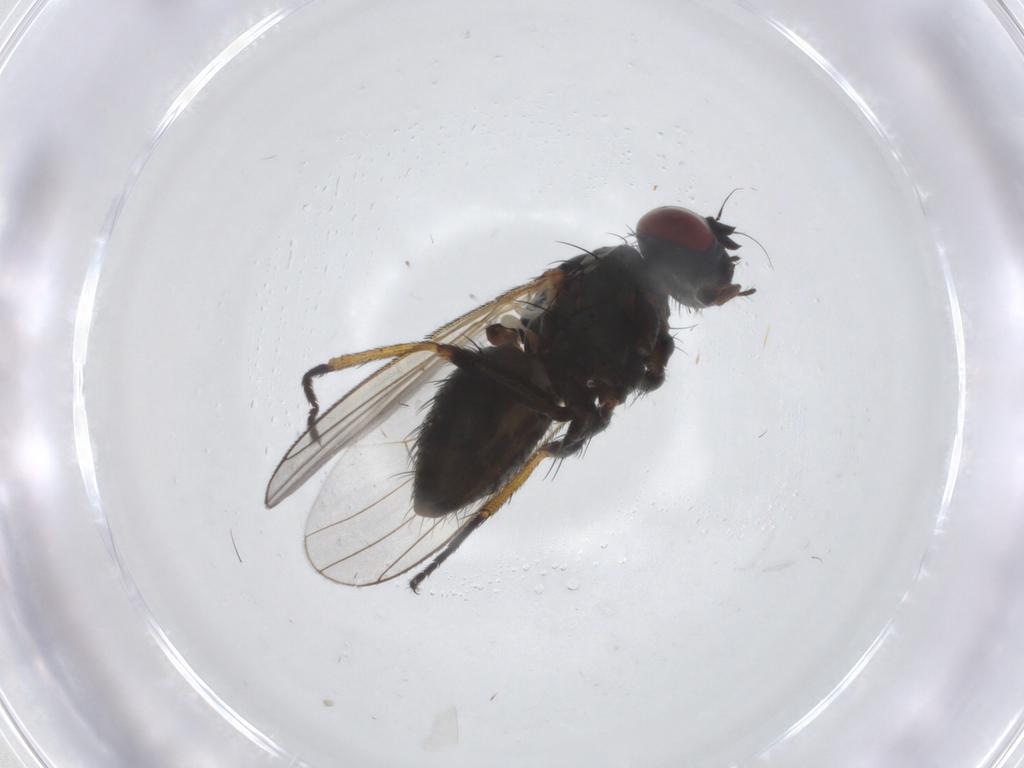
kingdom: Animalia
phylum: Arthropoda
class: Insecta
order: Diptera
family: Muscidae
